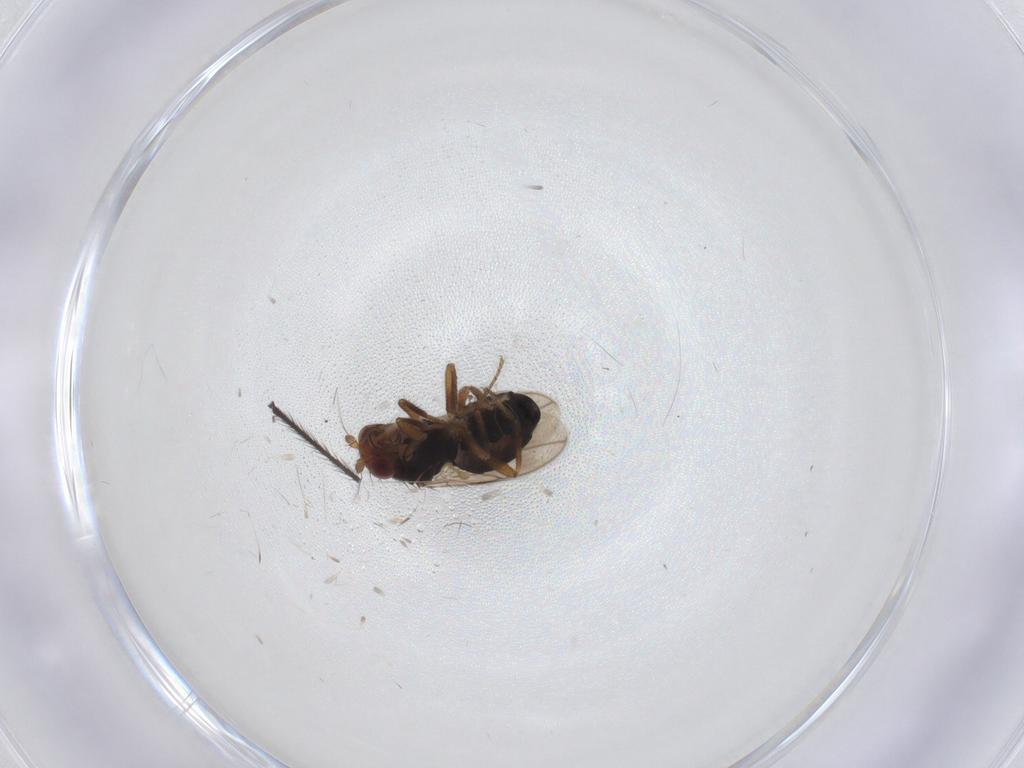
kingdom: Animalia
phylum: Arthropoda
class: Insecta
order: Diptera
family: Sphaeroceridae
